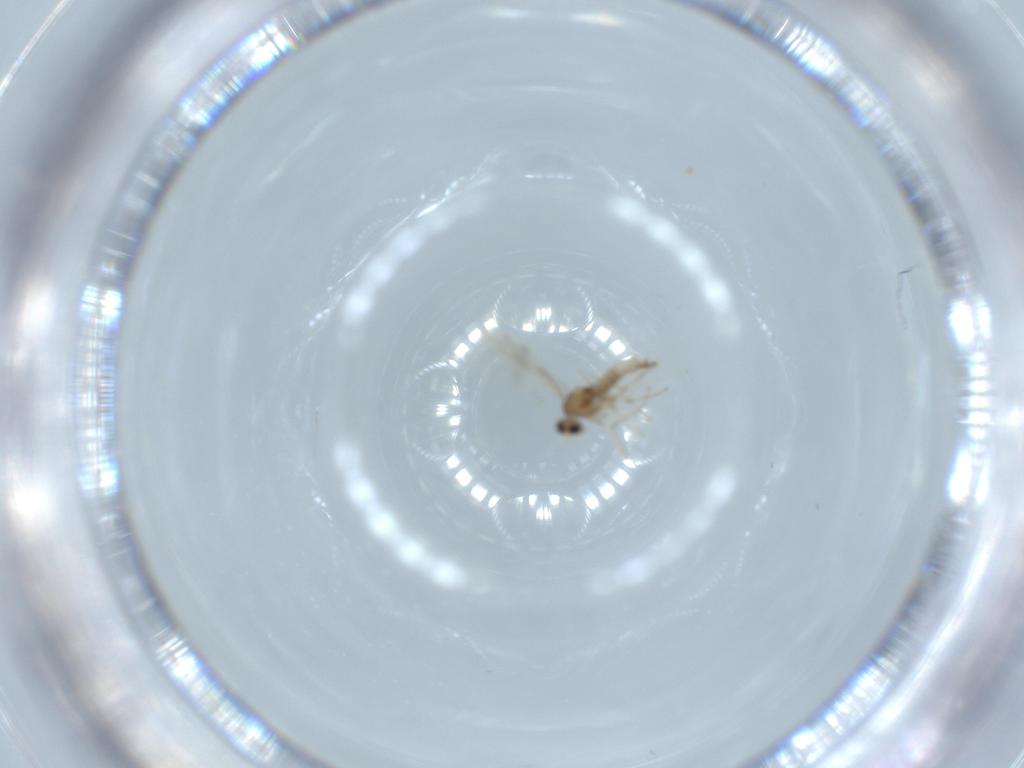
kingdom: Animalia
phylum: Arthropoda
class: Insecta
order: Diptera
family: Cecidomyiidae
